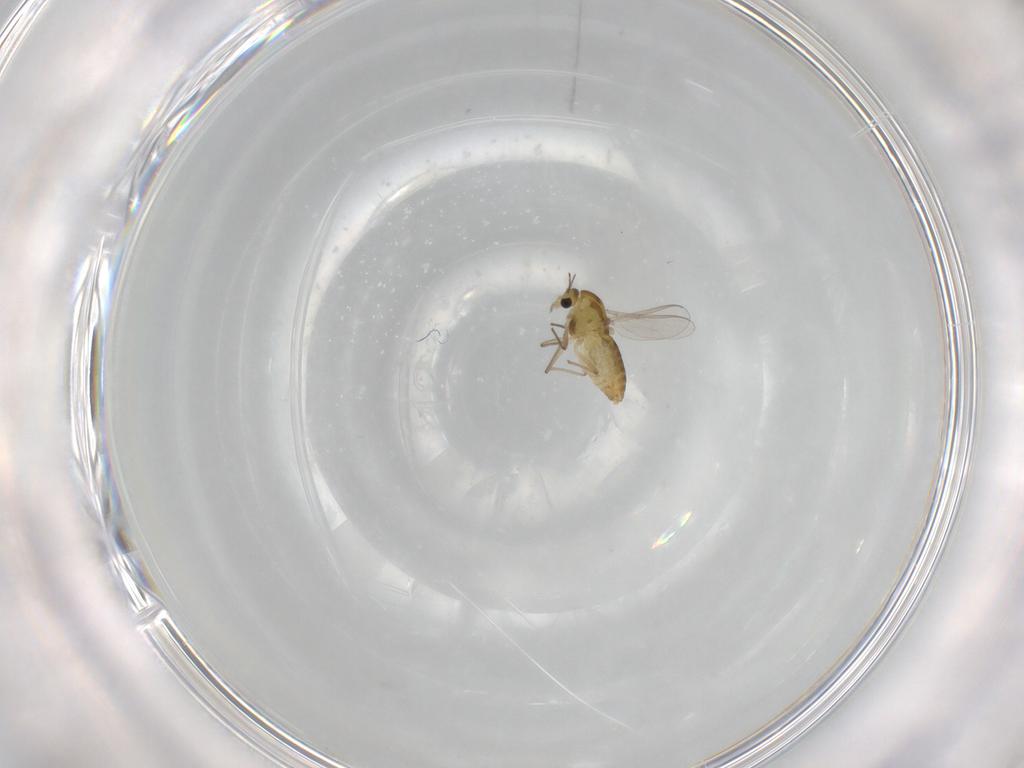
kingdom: Animalia
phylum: Arthropoda
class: Insecta
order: Diptera
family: Chironomidae
